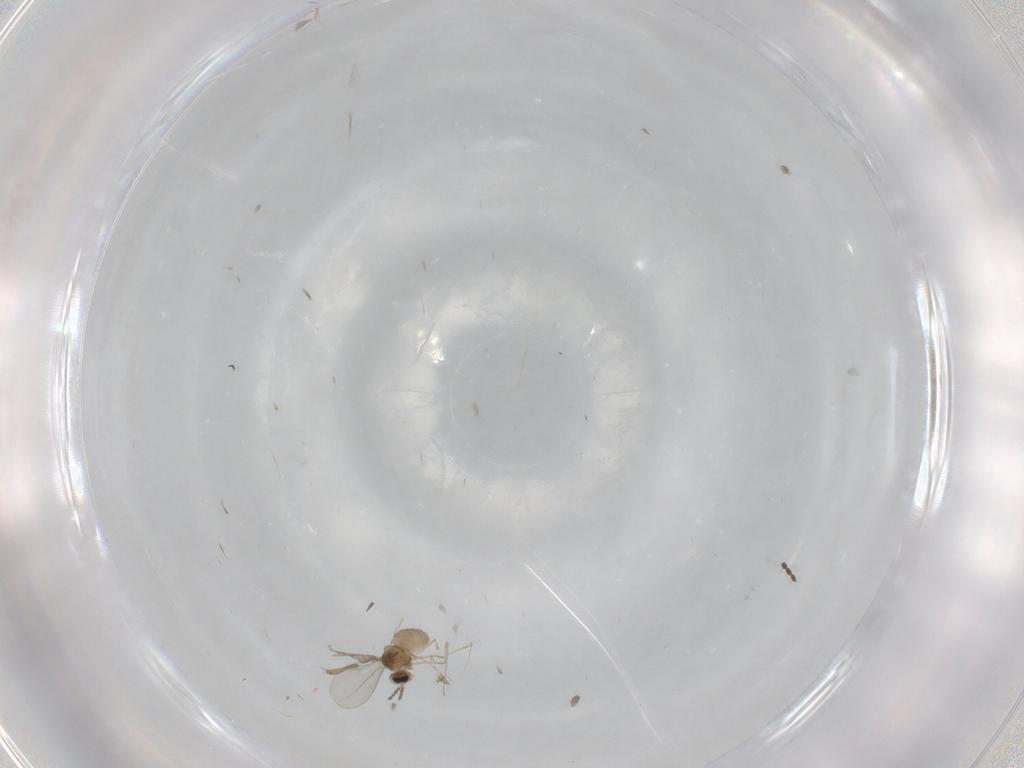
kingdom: Animalia
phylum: Arthropoda
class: Insecta
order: Diptera
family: Cecidomyiidae
